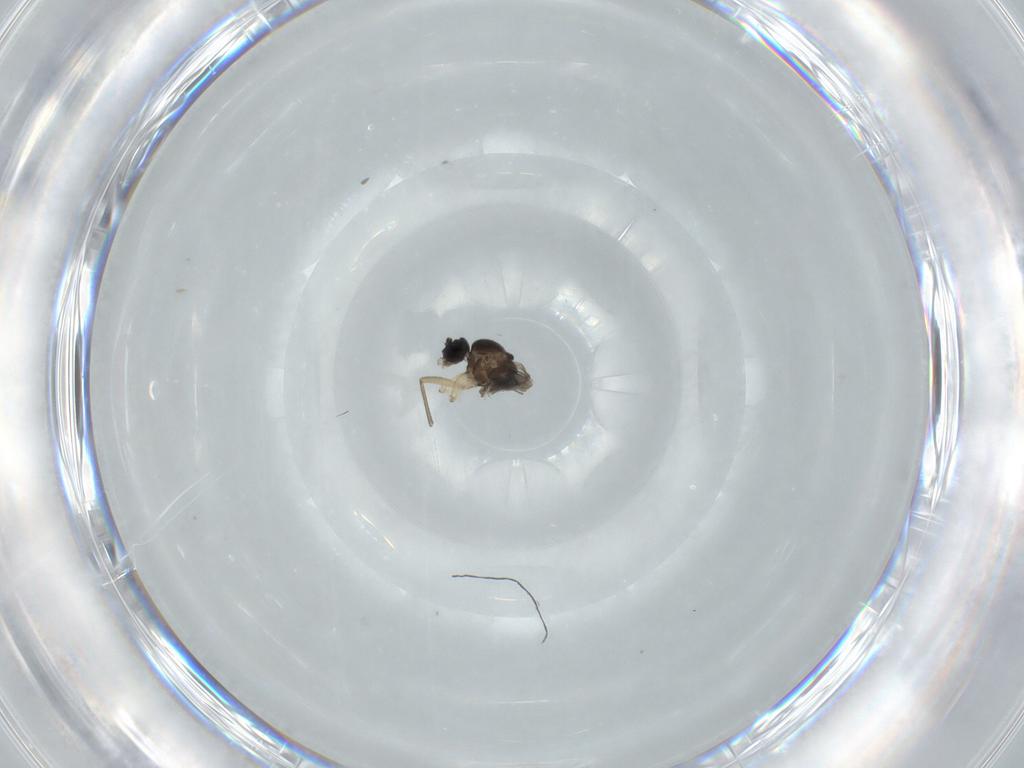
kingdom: Animalia
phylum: Arthropoda
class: Insecta
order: Diptera
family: Sciaridae
